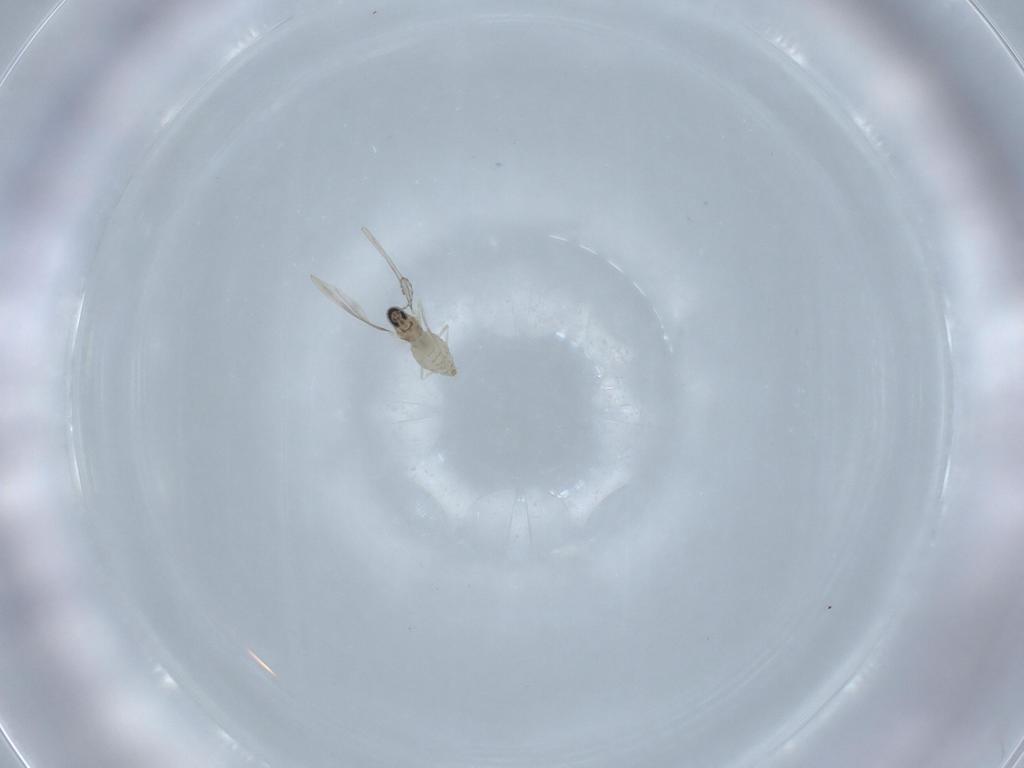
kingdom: Animalia
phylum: Arthropoda
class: Insecta
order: Diptera
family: Cecidomyiidae
